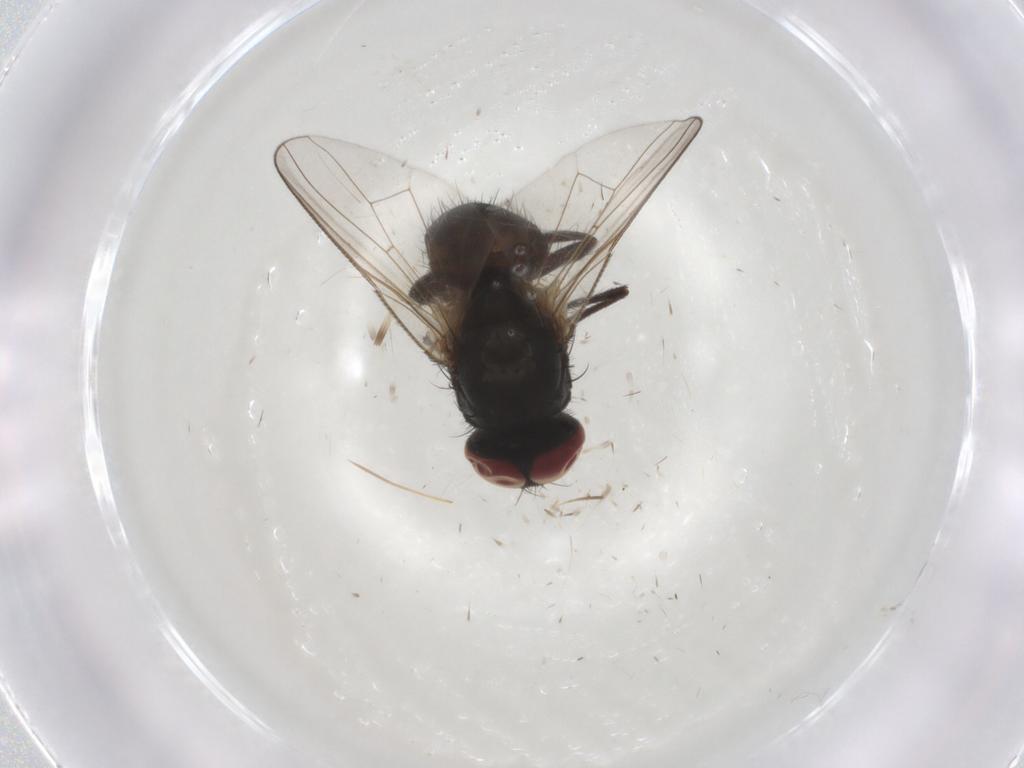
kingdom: Animalia
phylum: Arthropoda
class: Insecta
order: Diptera
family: Muscidae
